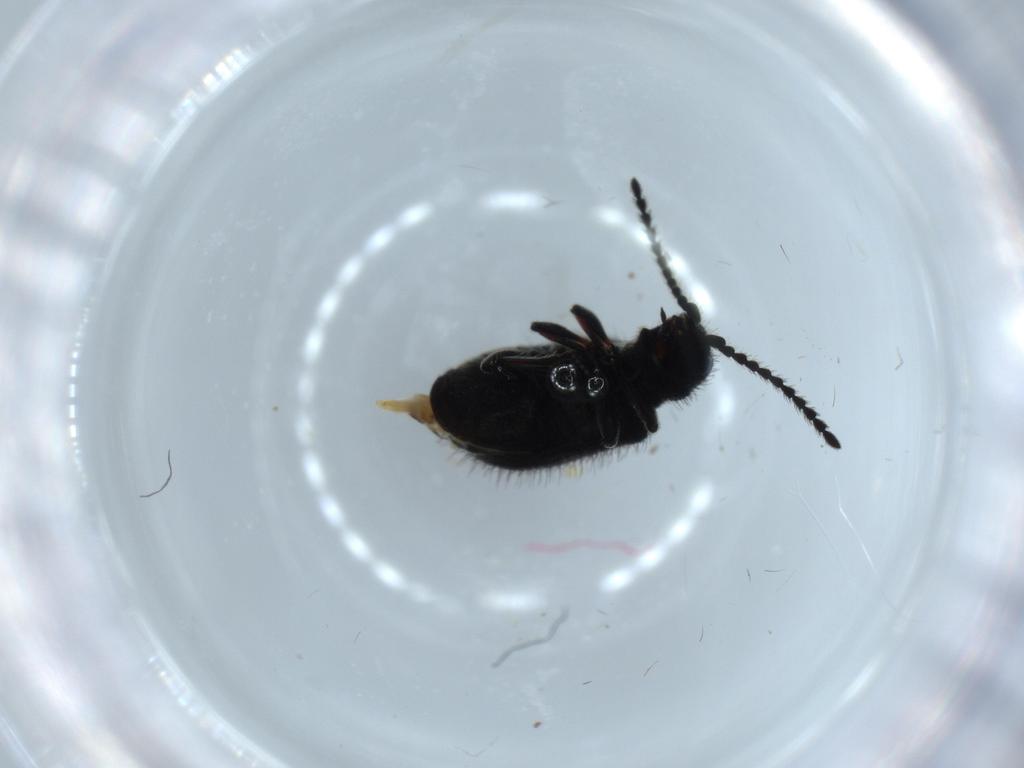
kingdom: Animalia
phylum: Arthropoda
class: Insecta
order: Coleoptera
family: Ptinidae
